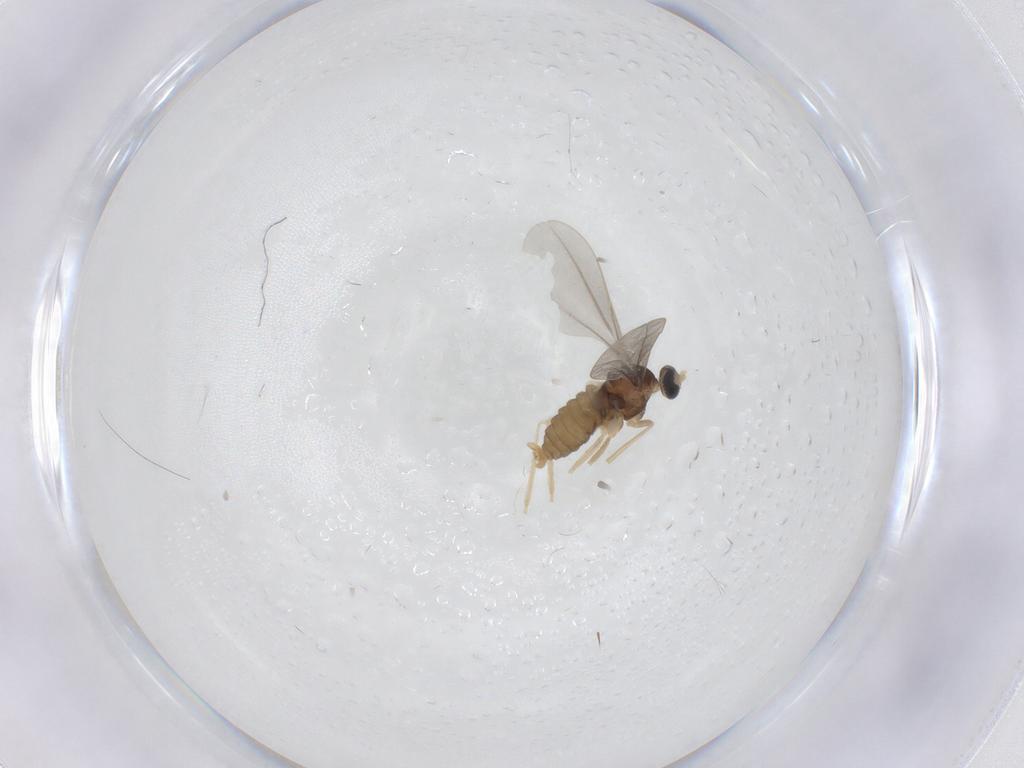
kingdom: Animalia
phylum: Arthropoda
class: Insecta
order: Diptera
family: Cecidomyiidae
